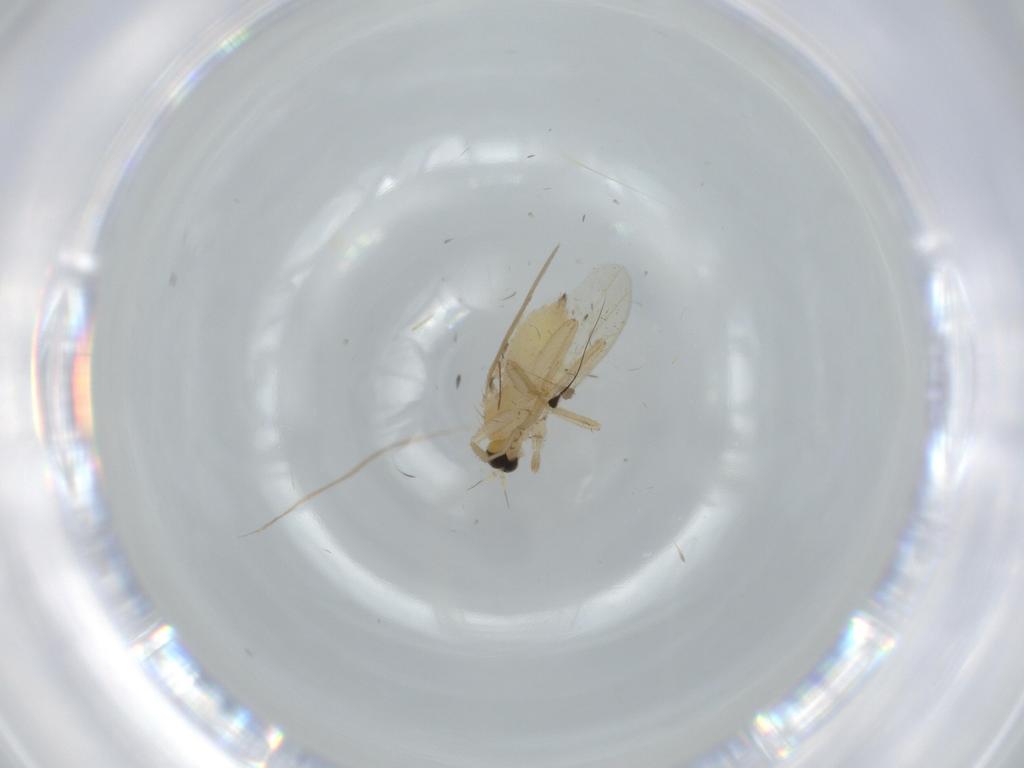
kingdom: Animalia
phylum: Arthropoda
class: Insecta
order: Diptera
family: Hybotidae
